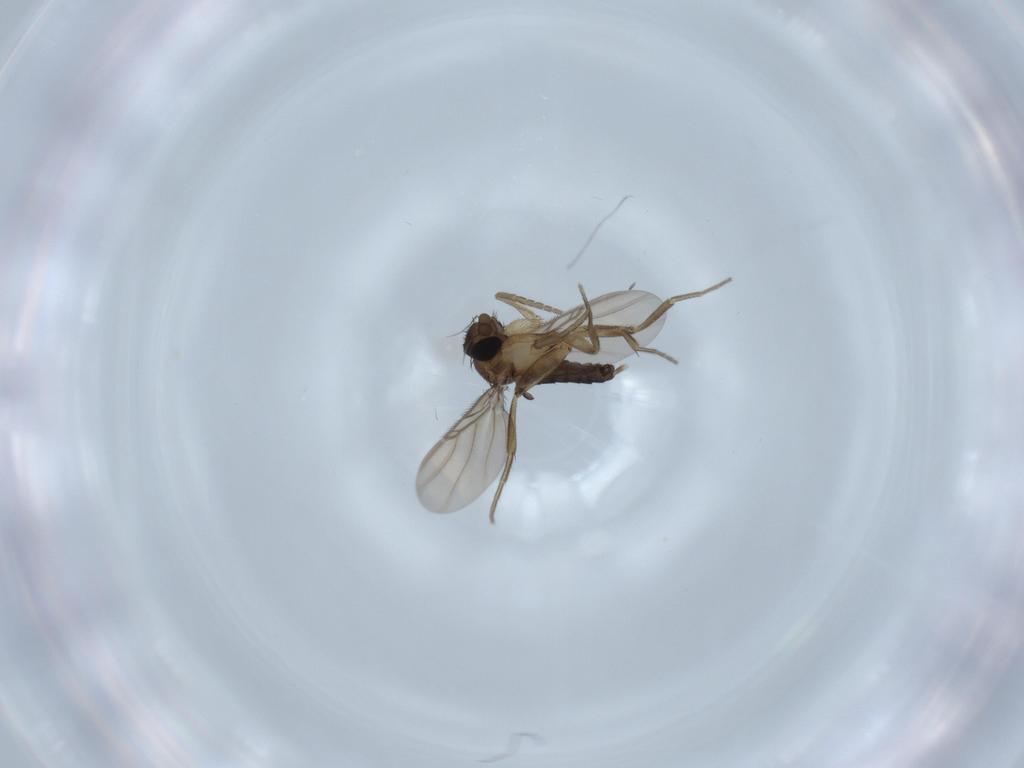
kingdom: Animalia
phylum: Arthropoda
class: Insecta
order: Diptera
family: Phoridae
